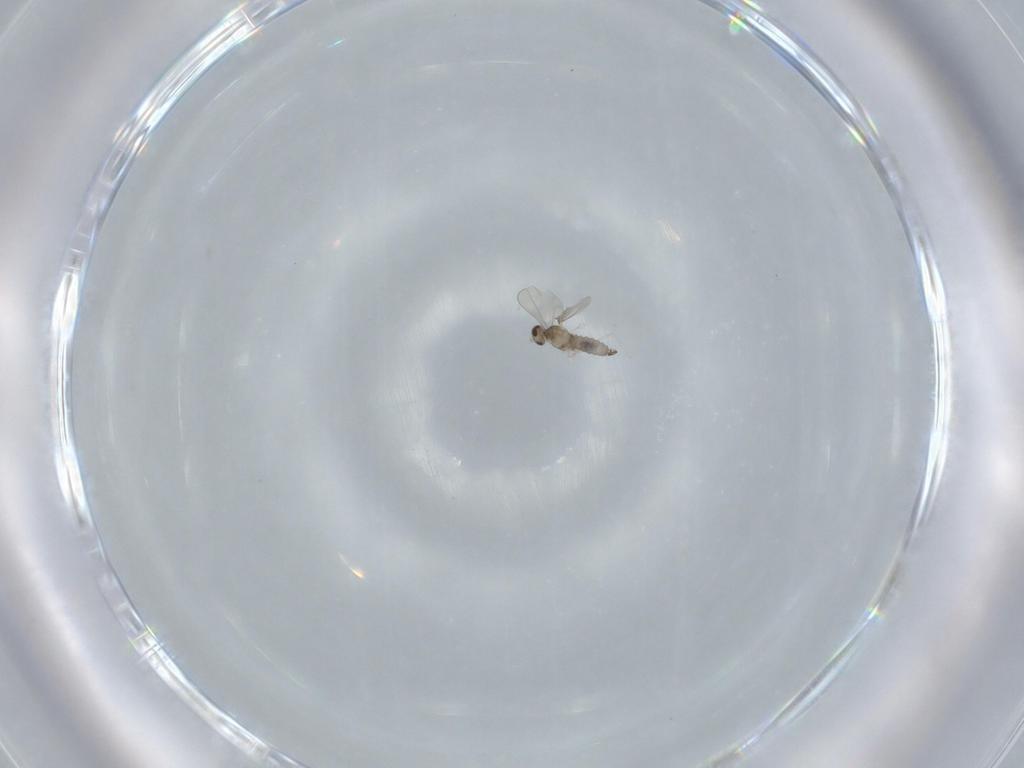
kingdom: Animalia
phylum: Arthropoda
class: Insecta
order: Diptera
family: Cecidomyiidae
